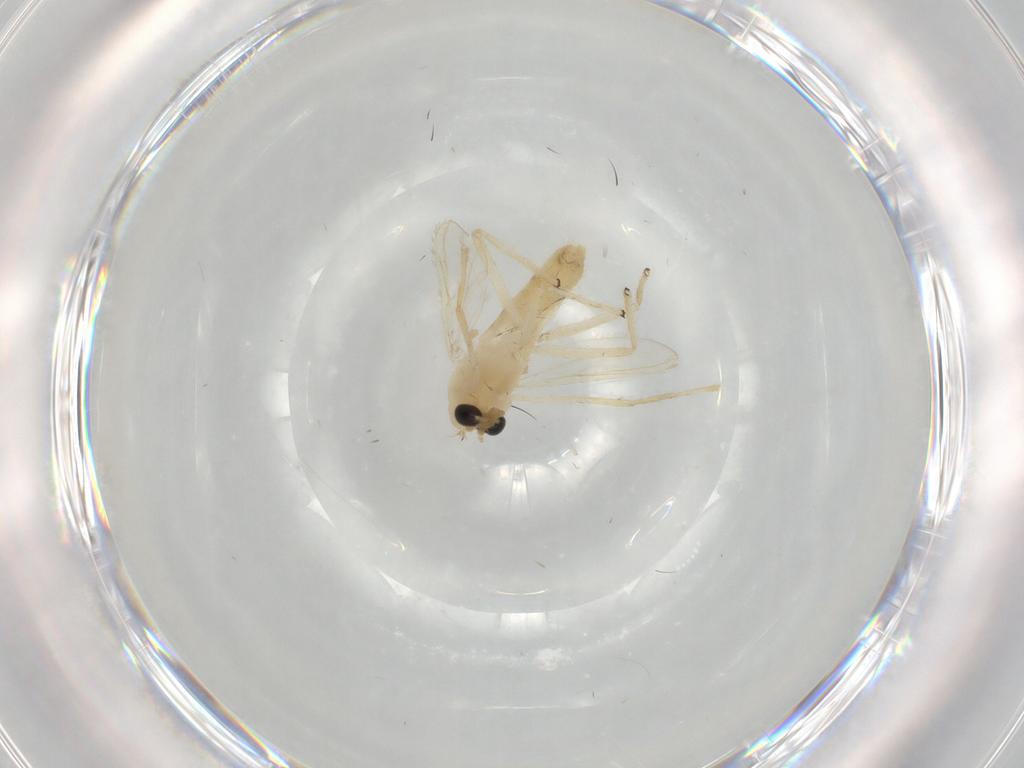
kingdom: Animalia
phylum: Arthropoda
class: Insecta
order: Diptera
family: Chironomidae
